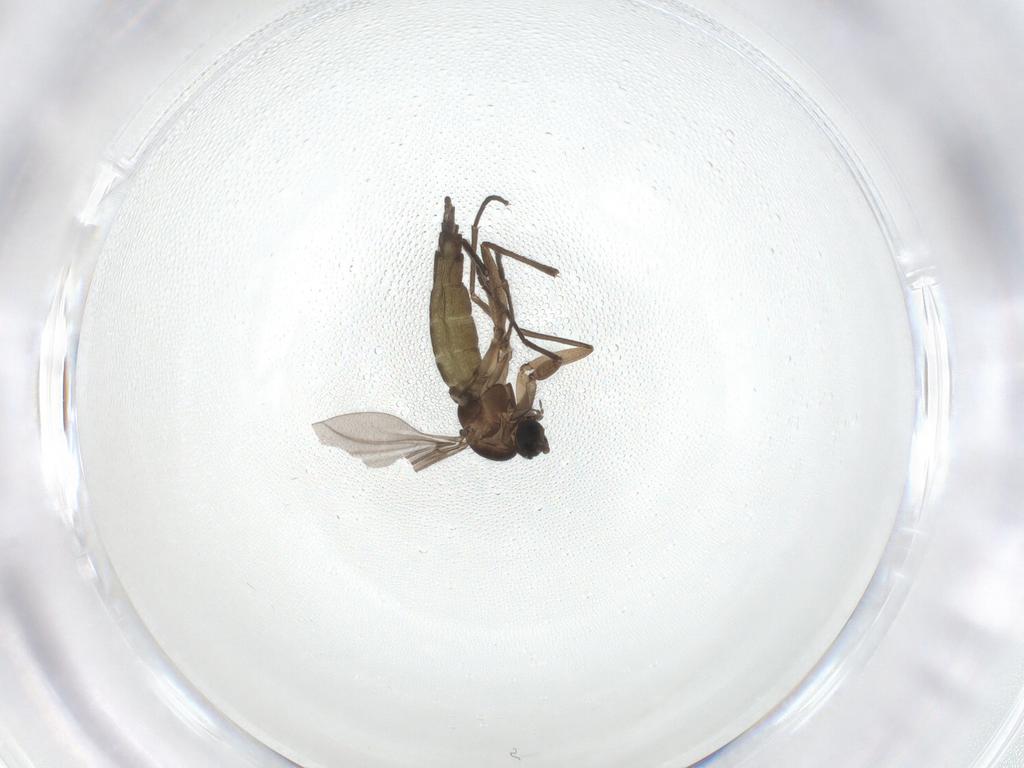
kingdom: Animalia
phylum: Arthropoda
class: Insecta
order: Diptera
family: Sciaridae
